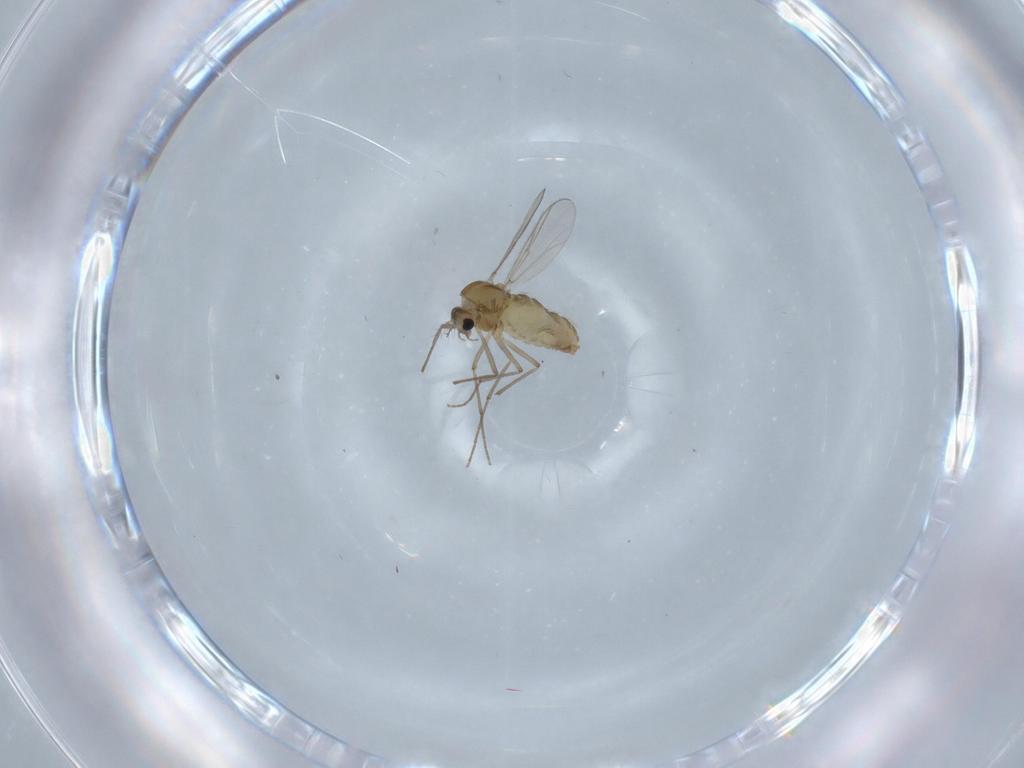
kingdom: Animalia
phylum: Arthropoda
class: Insecta
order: Diptera
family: Chironomidae
